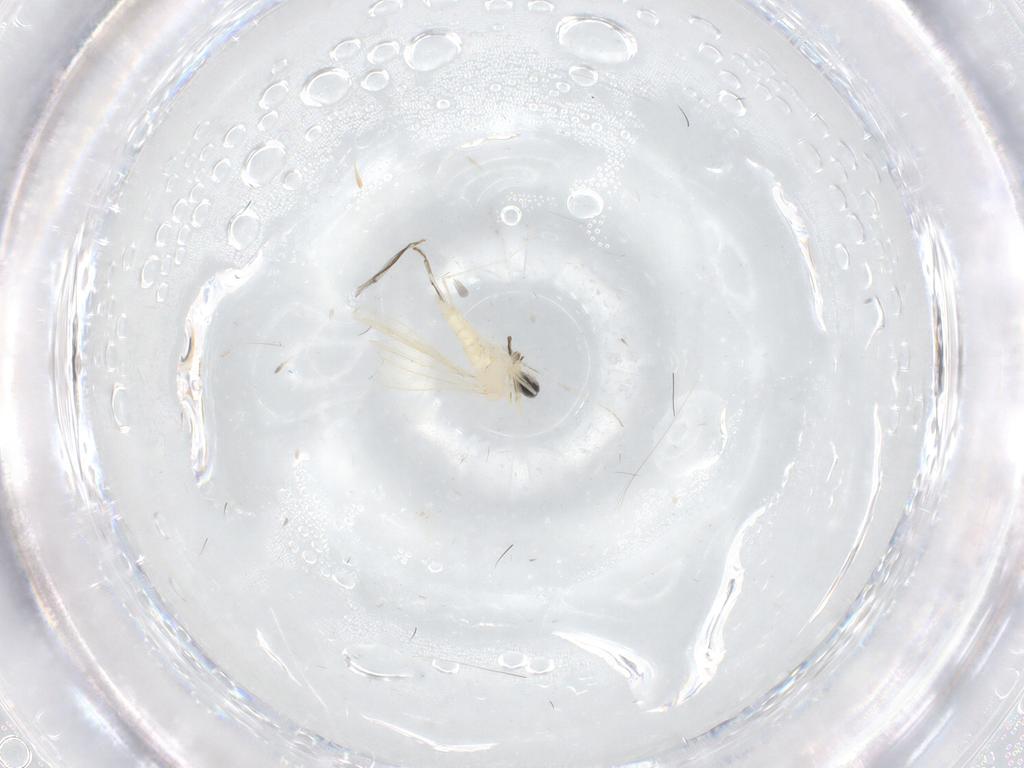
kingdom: Animalia
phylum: Arthropoda
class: Insecta
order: Diptera
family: Cecidomyiidae
